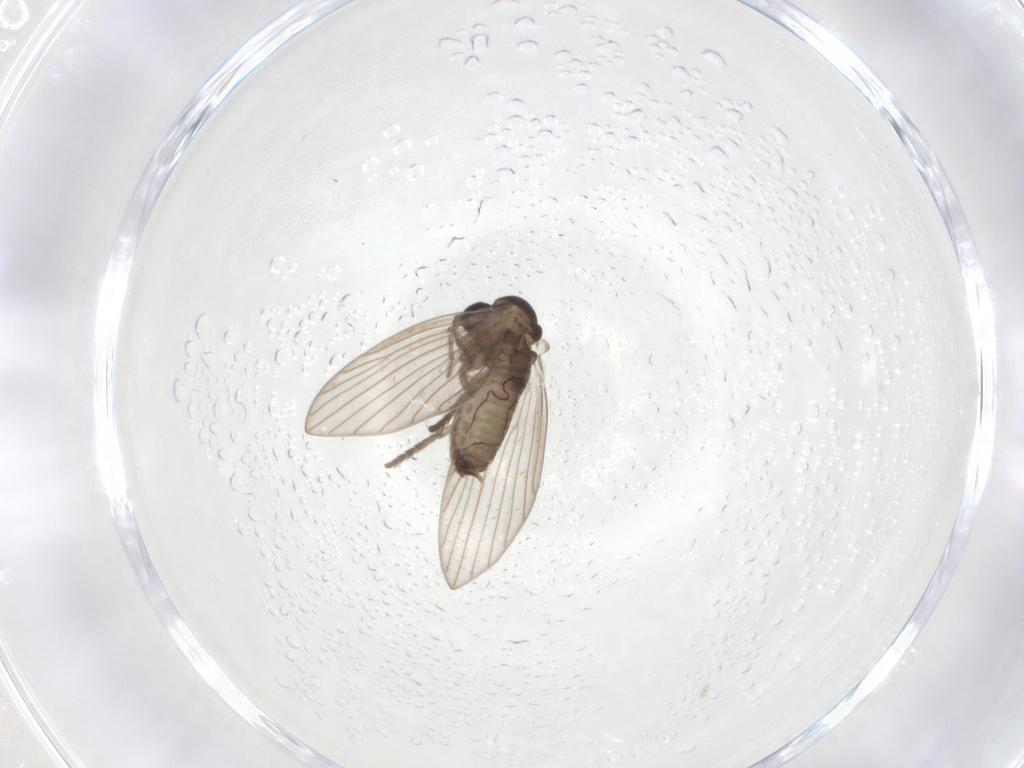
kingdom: Animalia
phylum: Arthropoda
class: Insecta
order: Diptera
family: Psychodidae
